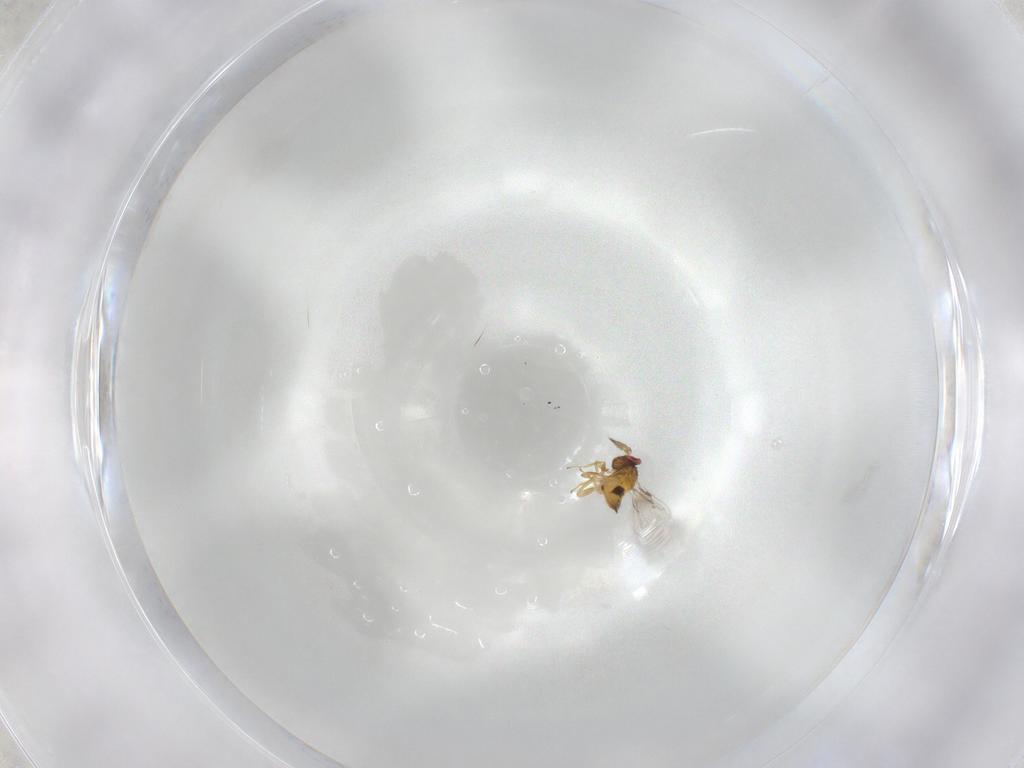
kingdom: Animalia
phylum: Arthropoda
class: Insecta
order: Hymenoptera
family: Trichogrammatidae
